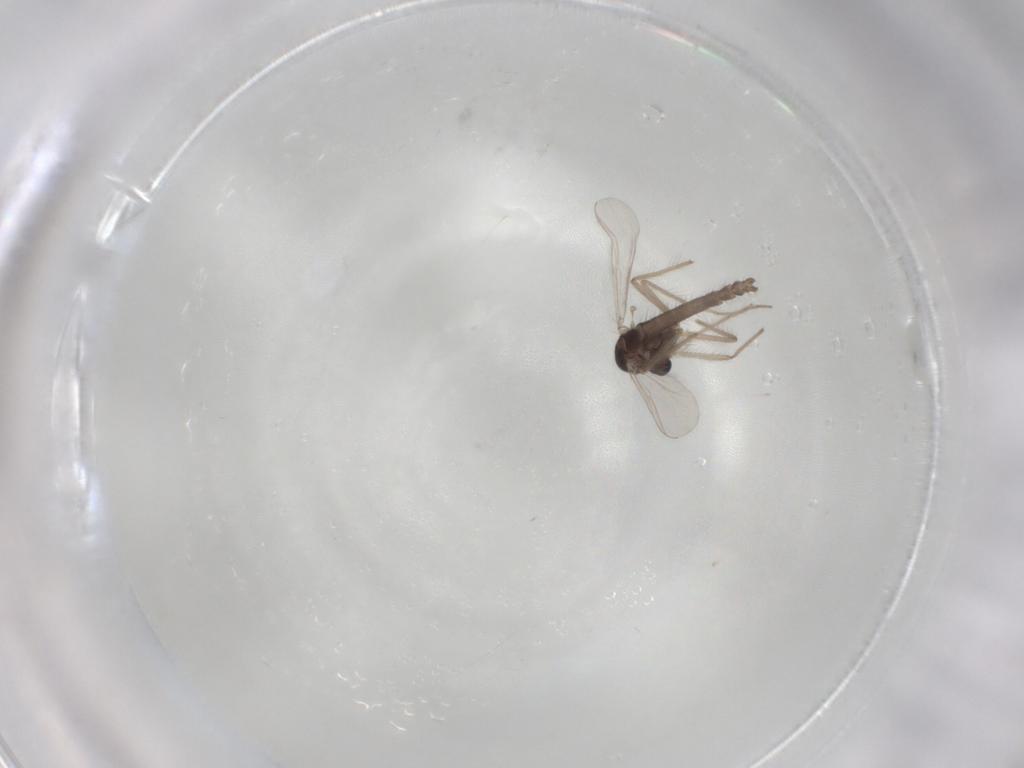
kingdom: Animalia
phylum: Arthropoda
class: Insecta
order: Diptera
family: Chironomidae
